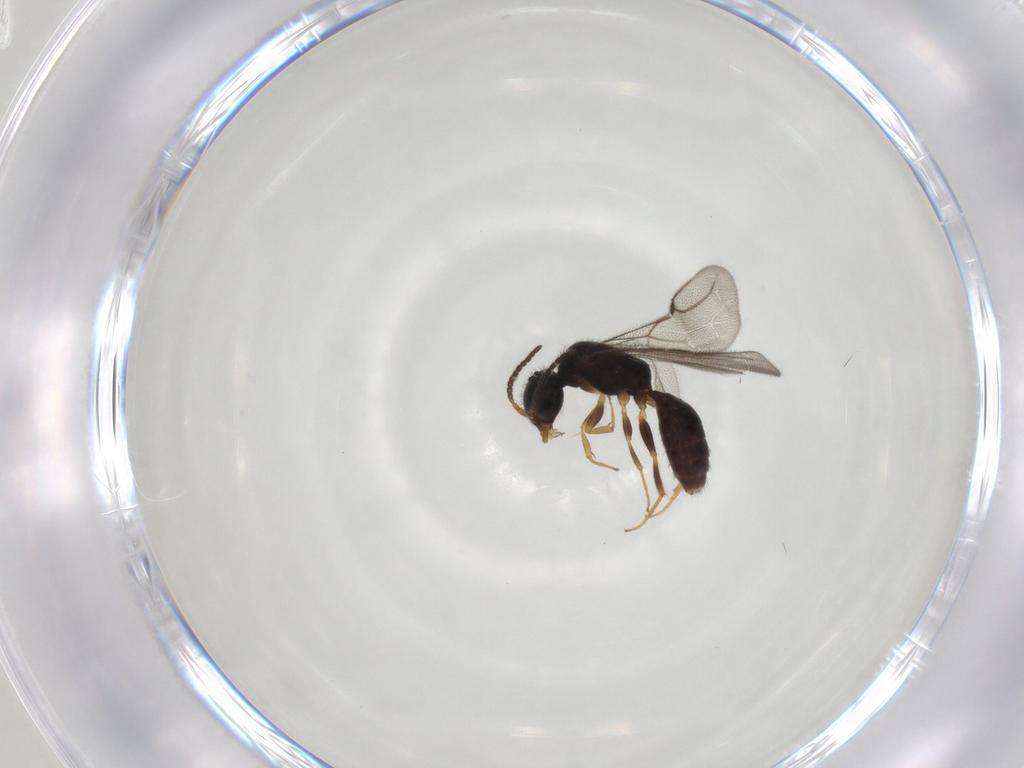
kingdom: Animalia
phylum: Arthropoda
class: Insecta
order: Hymenoptera
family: Bethylidae
